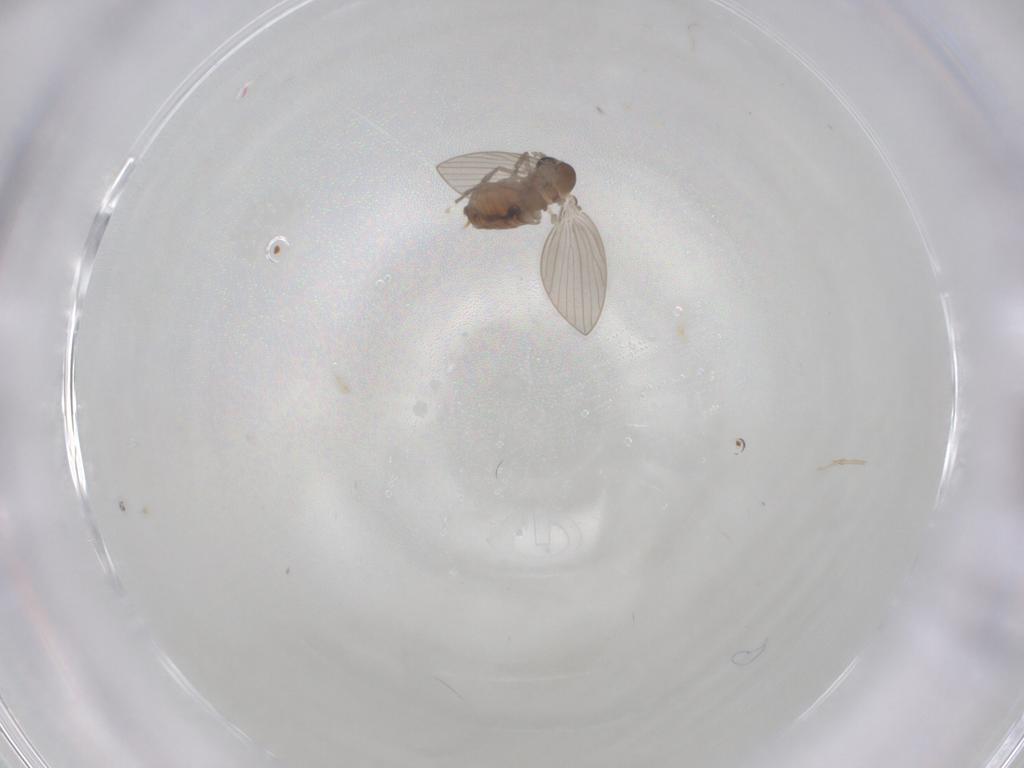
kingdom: Animalia
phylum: Arthropoda
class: Insecta
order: Diptera
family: Psychodidae
